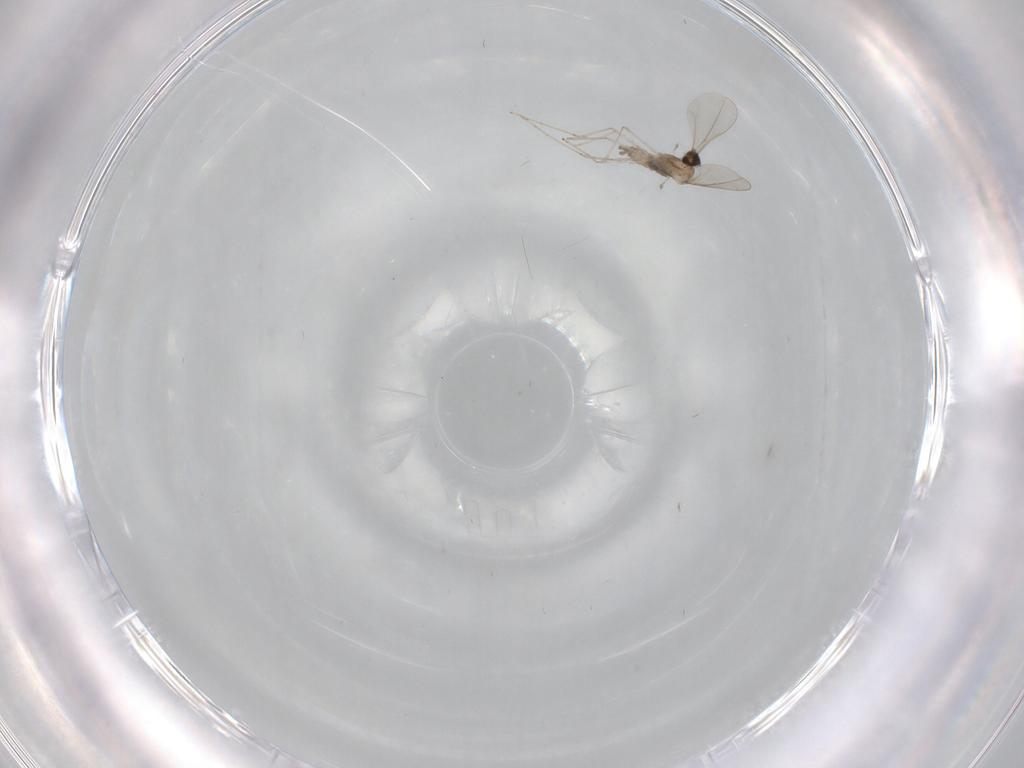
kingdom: Animalia
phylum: Arthropoda
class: Insecta
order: Diptera
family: Cecidomyiidae
